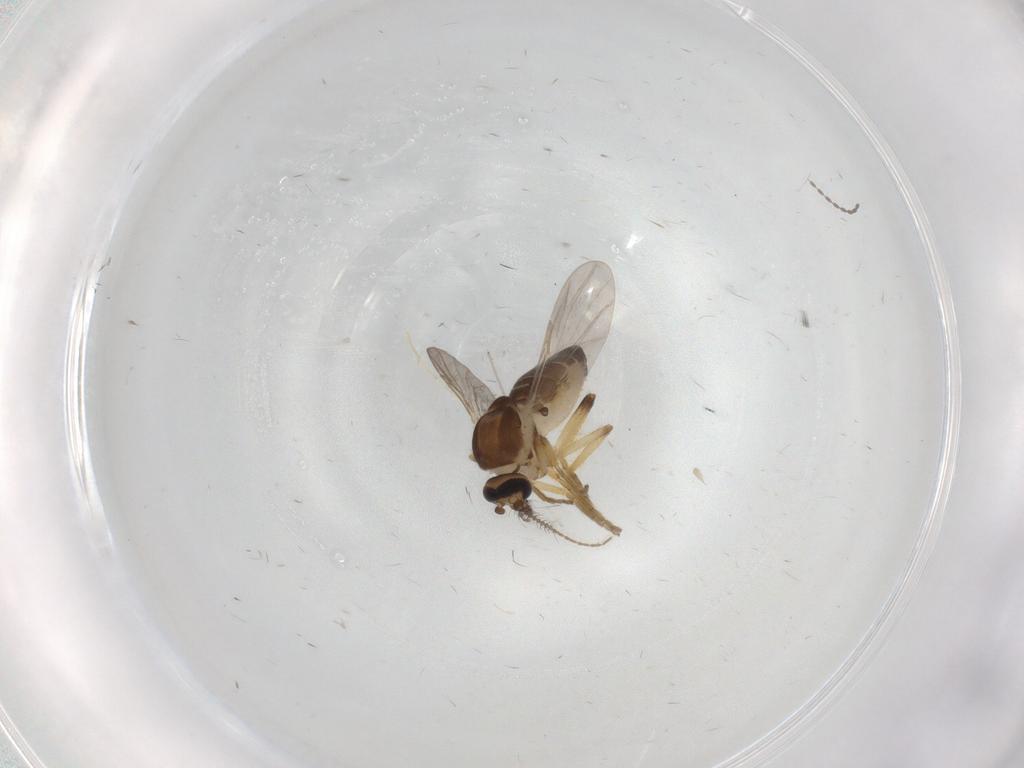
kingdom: Animalia
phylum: Arthropoda
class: Insecta
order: Diptera
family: Ceratopogonidae
